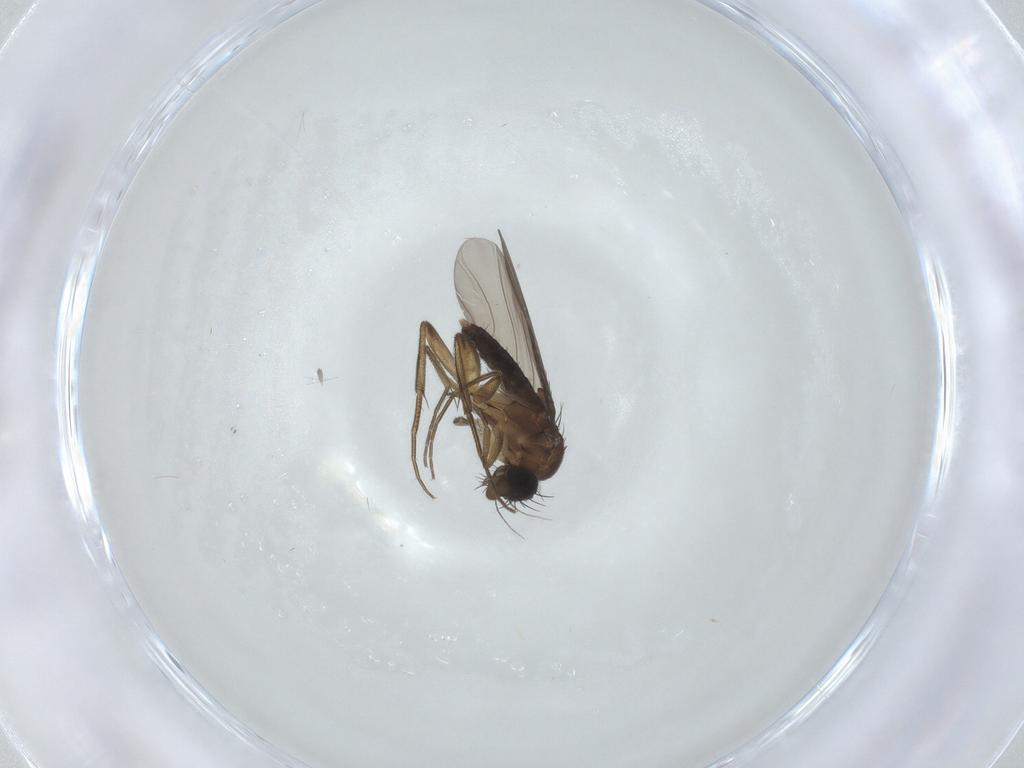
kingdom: Animalia
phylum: Arthropoda
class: Insecta
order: Diptera
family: Phoridae
